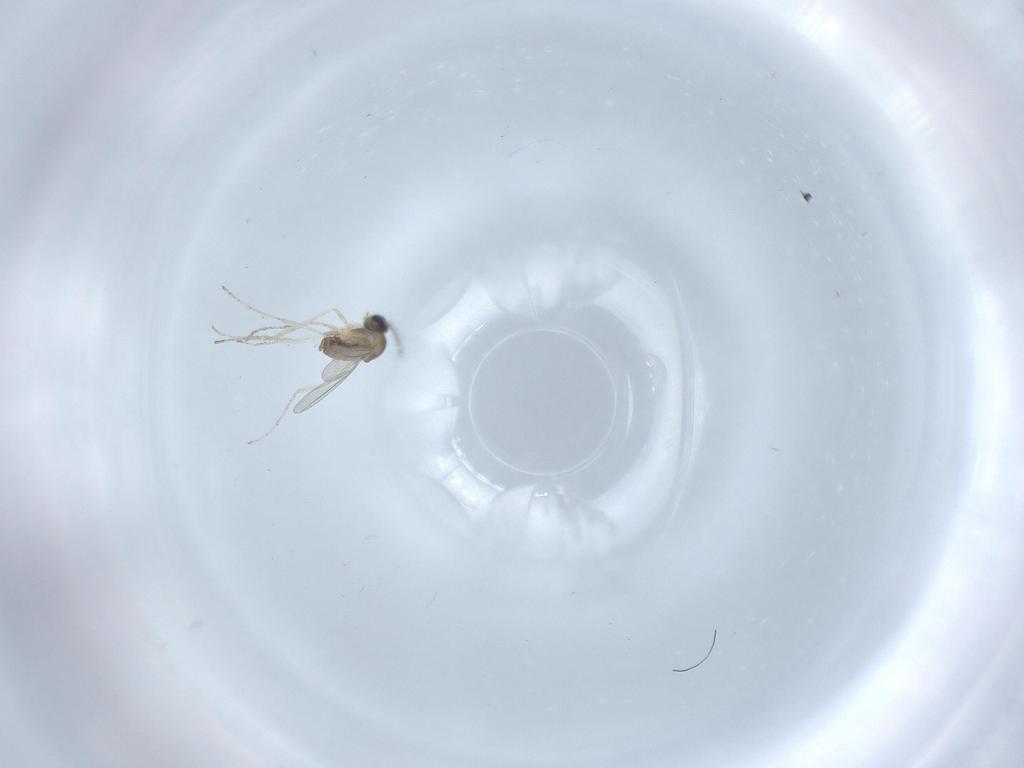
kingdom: Animalia
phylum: Arthropoda
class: Insecta
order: Diptera
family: Cecidomyiidae
